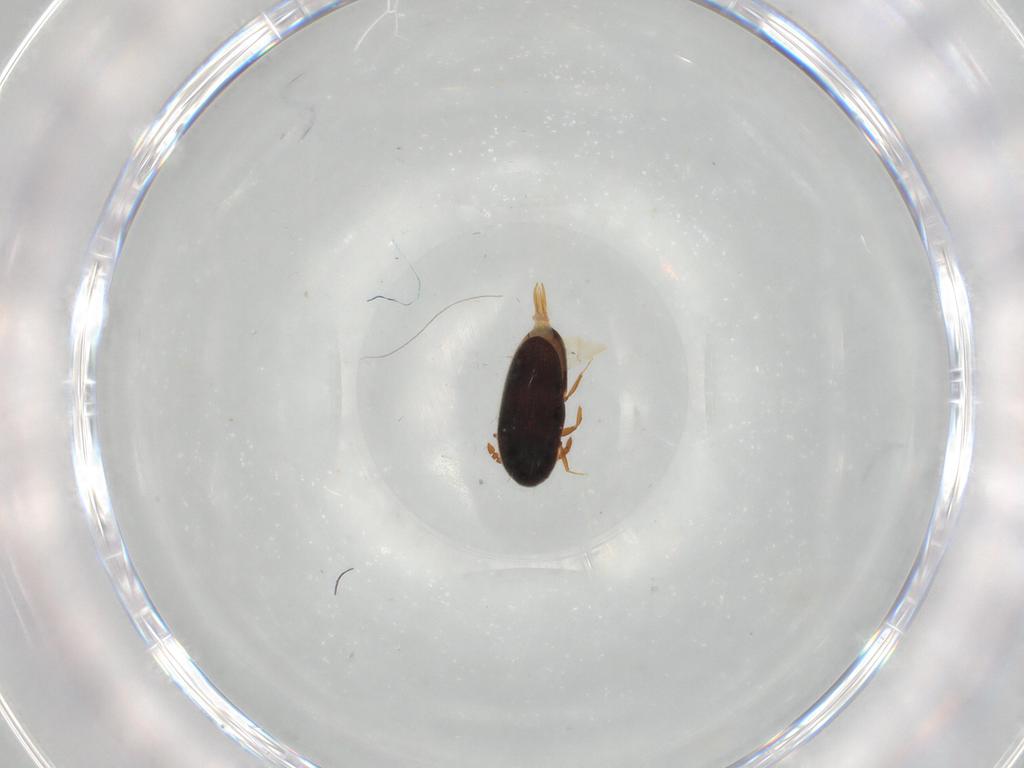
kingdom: Animalia
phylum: Arthropoda
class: Insecta
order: Coleoptera
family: Throscidae
